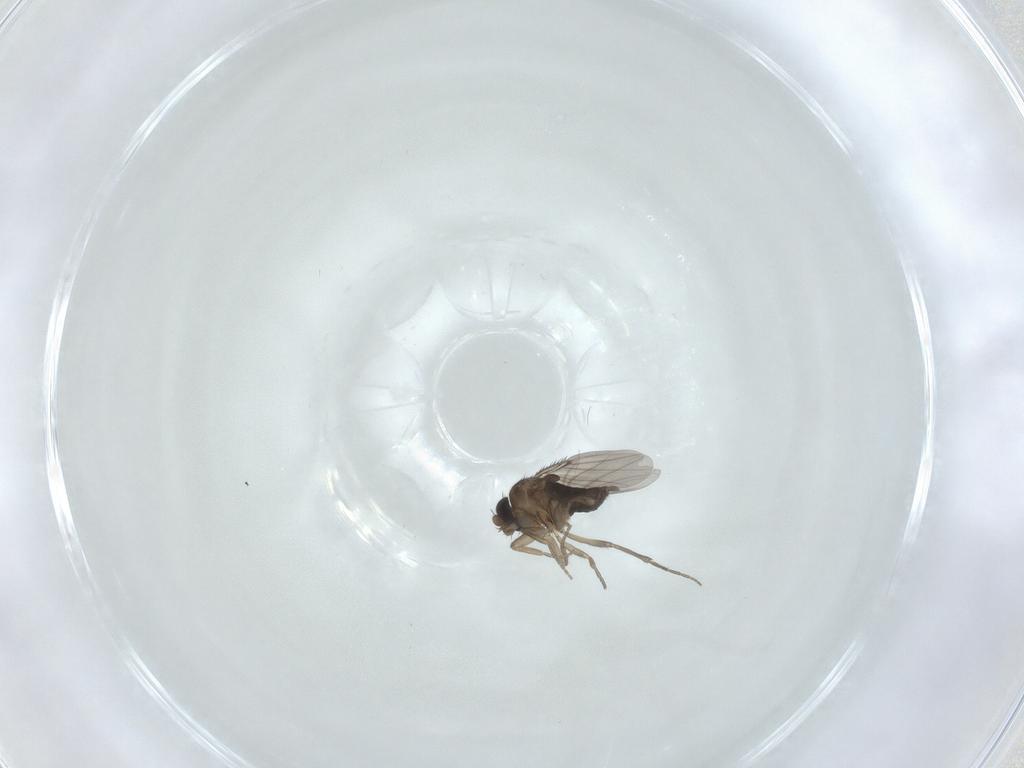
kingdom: Animalia
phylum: Arthropoda
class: Insecta
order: Diptera
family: Phoridae
